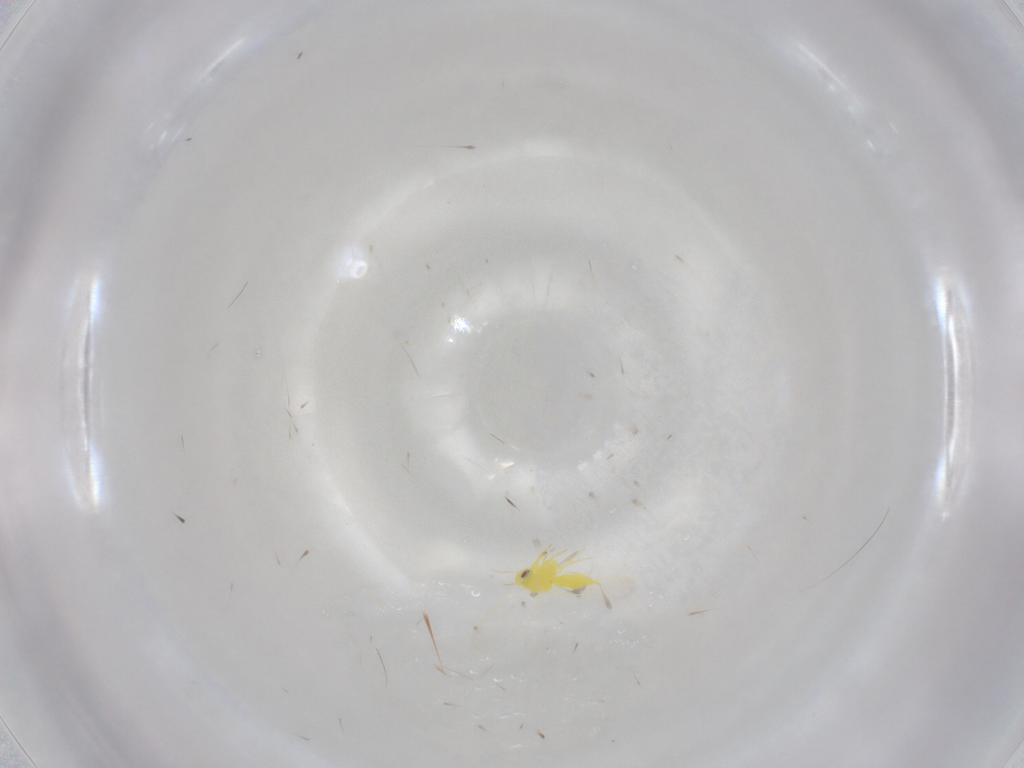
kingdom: Animalia
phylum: Arthropoda
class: Insecta
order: Hemiptera
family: Aleyrodidae
